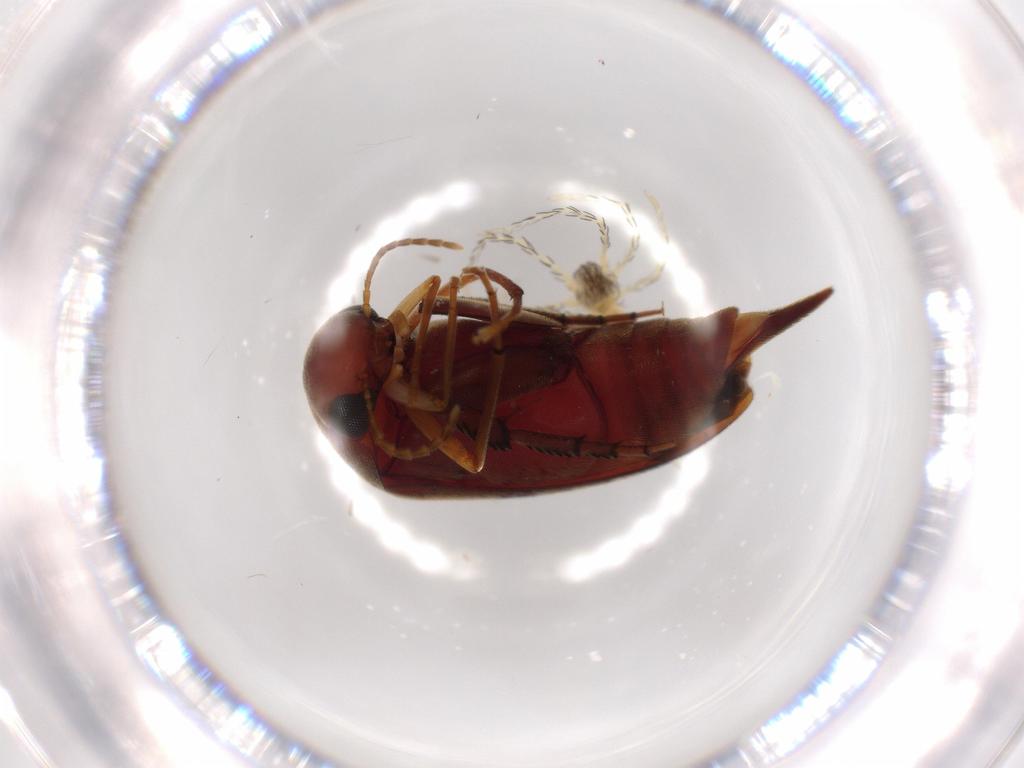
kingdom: Animalia
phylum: Arthropoda
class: Arachnida
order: Trombidiformes
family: Erythraeidae
